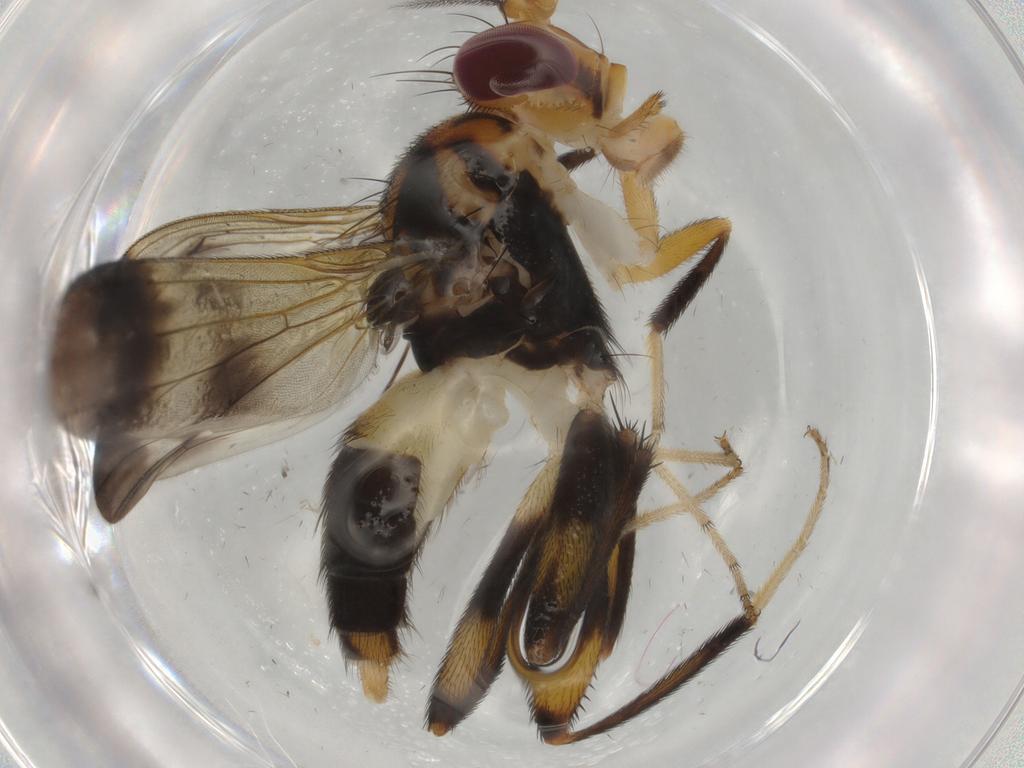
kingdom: Animalia
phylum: Arthropoda
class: Insecta
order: Diptera
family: Clusiidae
